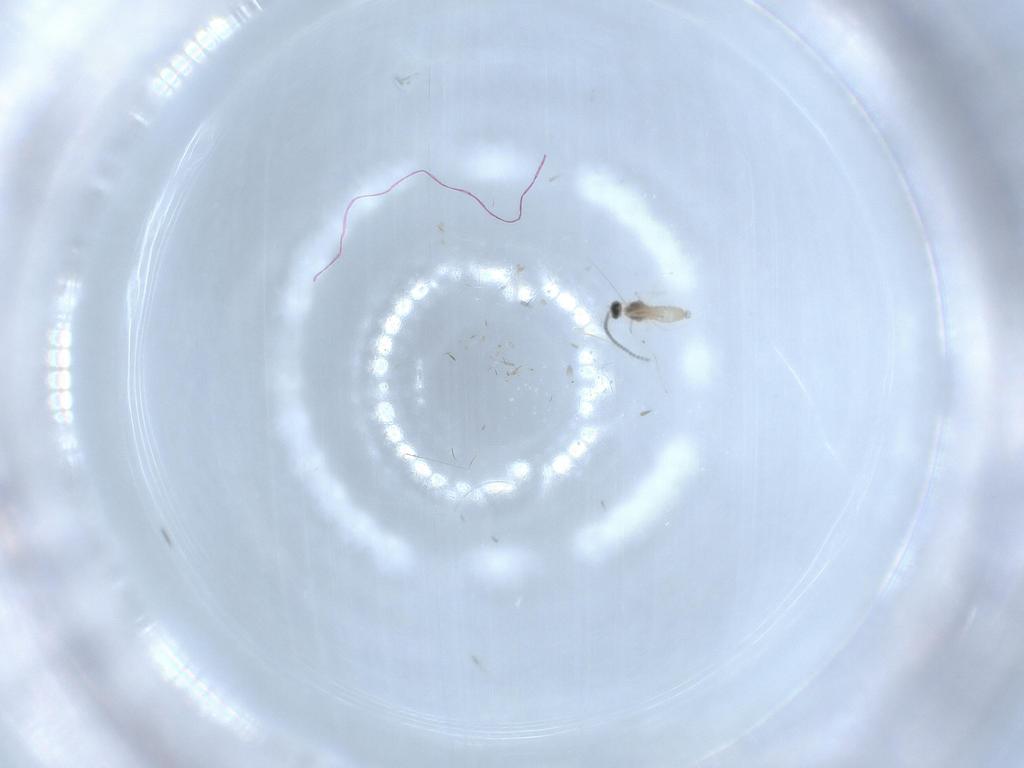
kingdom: Animalia
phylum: Arthropoda
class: Insecta
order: Diptera
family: Cecidomyiidae
